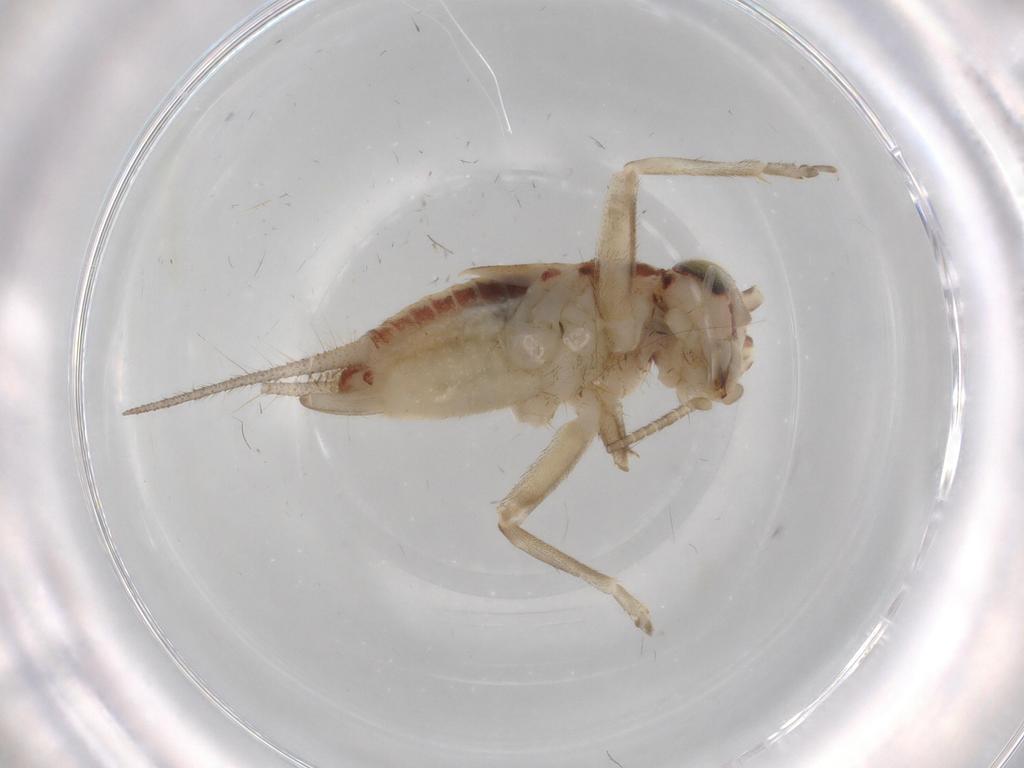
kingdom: Animalia
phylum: Arthropoda
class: Insecta
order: Orthoptera
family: Trigonidiidae
